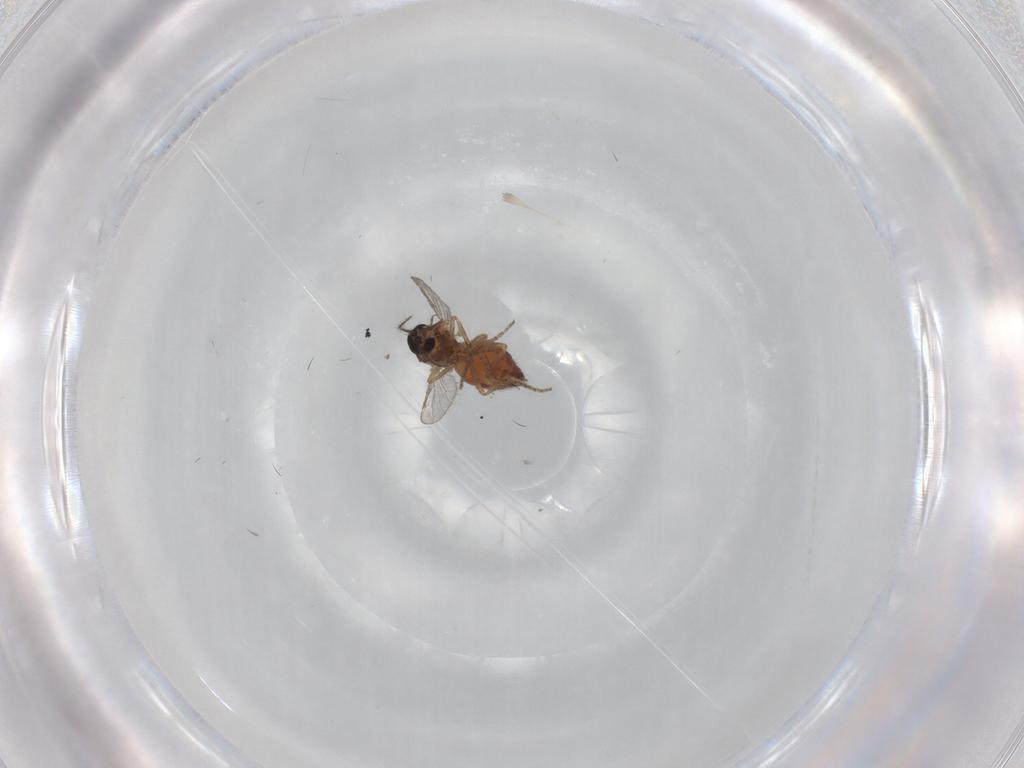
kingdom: Animalia
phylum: Arthropoda
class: Insecta
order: Diptera
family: Ceratopogonidae
